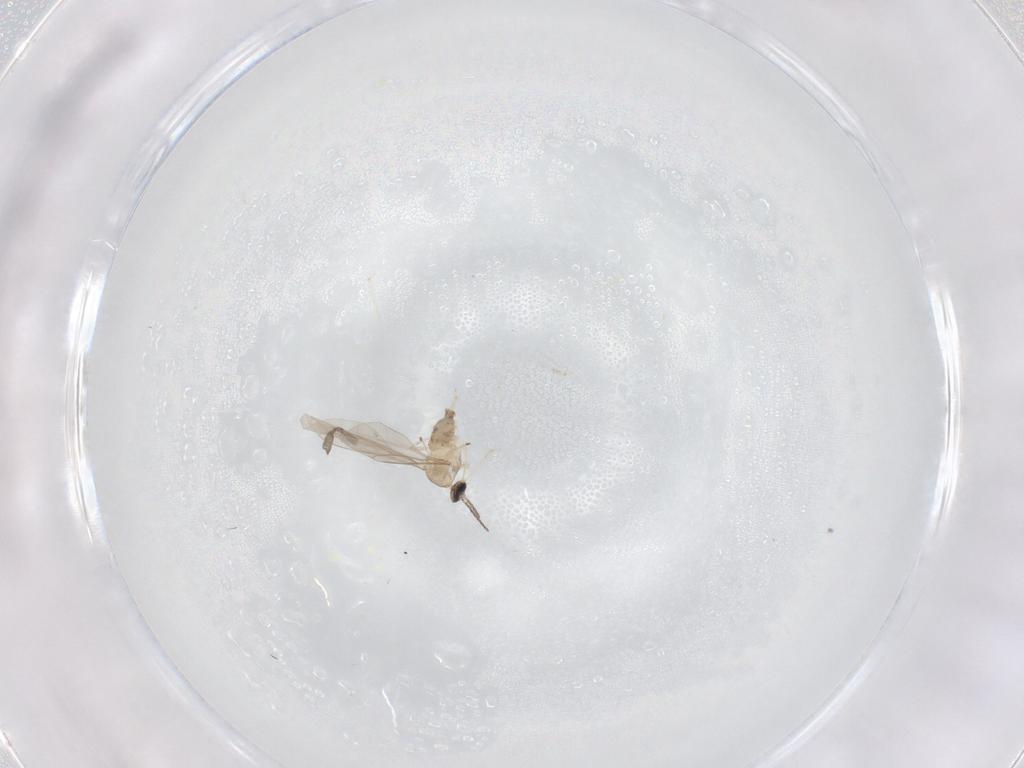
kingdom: Animalia
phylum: Arthropoda
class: Insecta
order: Diptera
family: Cecidomyiidae
